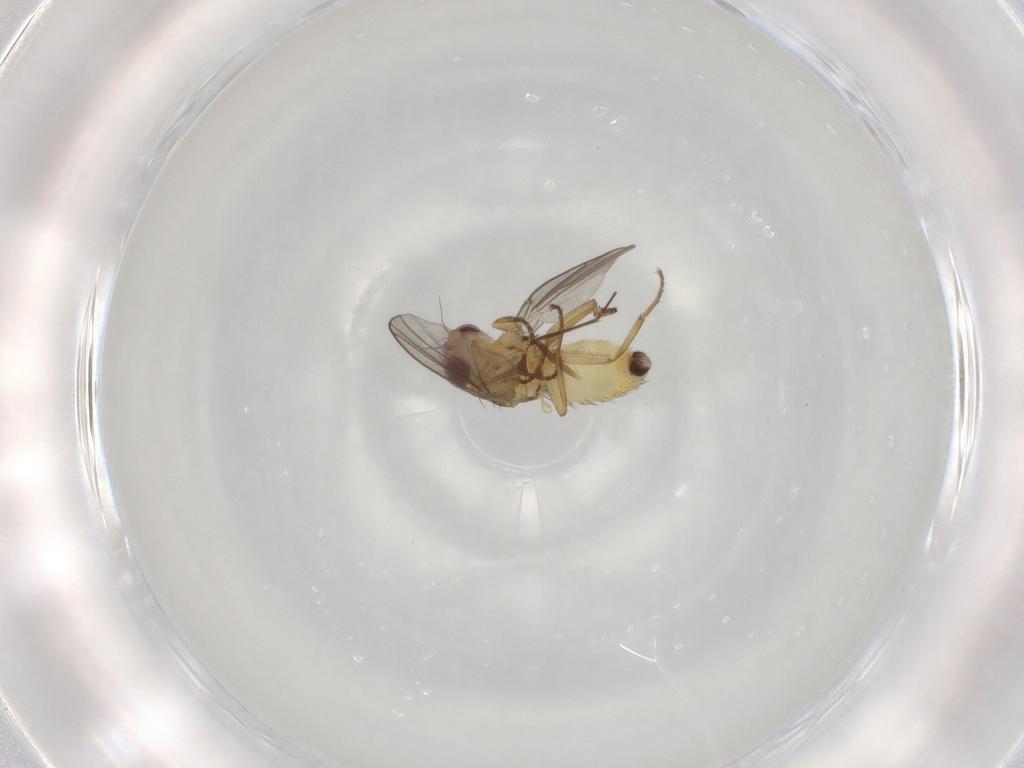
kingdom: Animalia
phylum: Arthropoda
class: Insecta
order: Diptera
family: Agromyzidae
